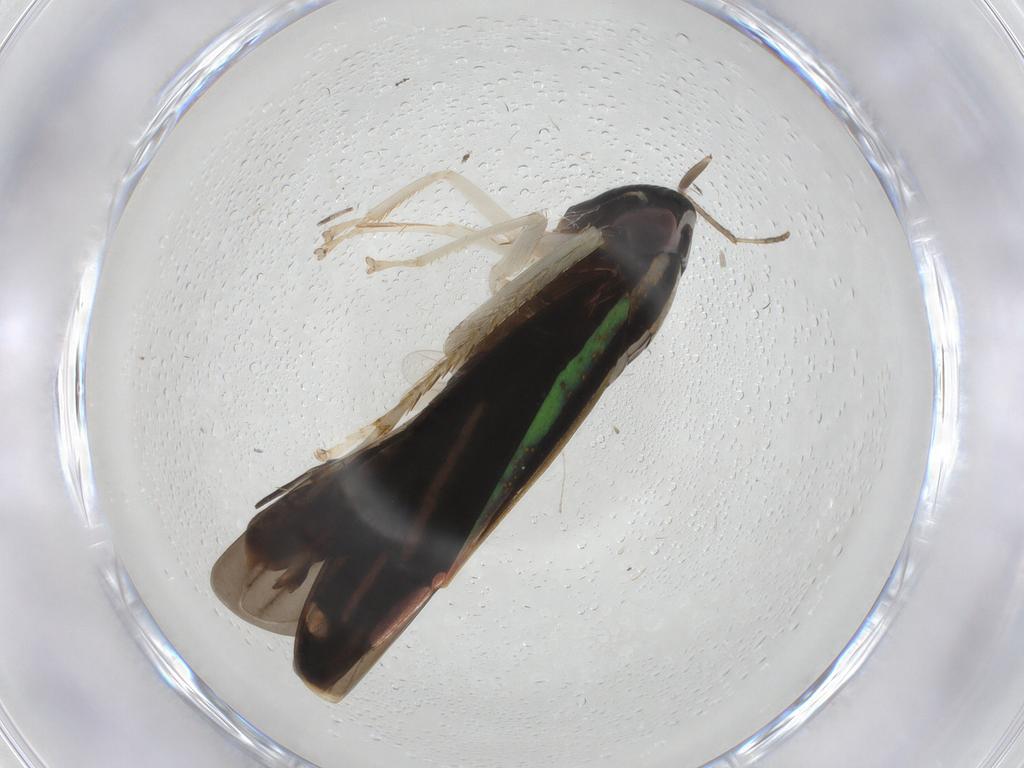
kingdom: Animalia
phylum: Arthropoda
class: Insecta
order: Hemiptera
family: Cicadellidae
